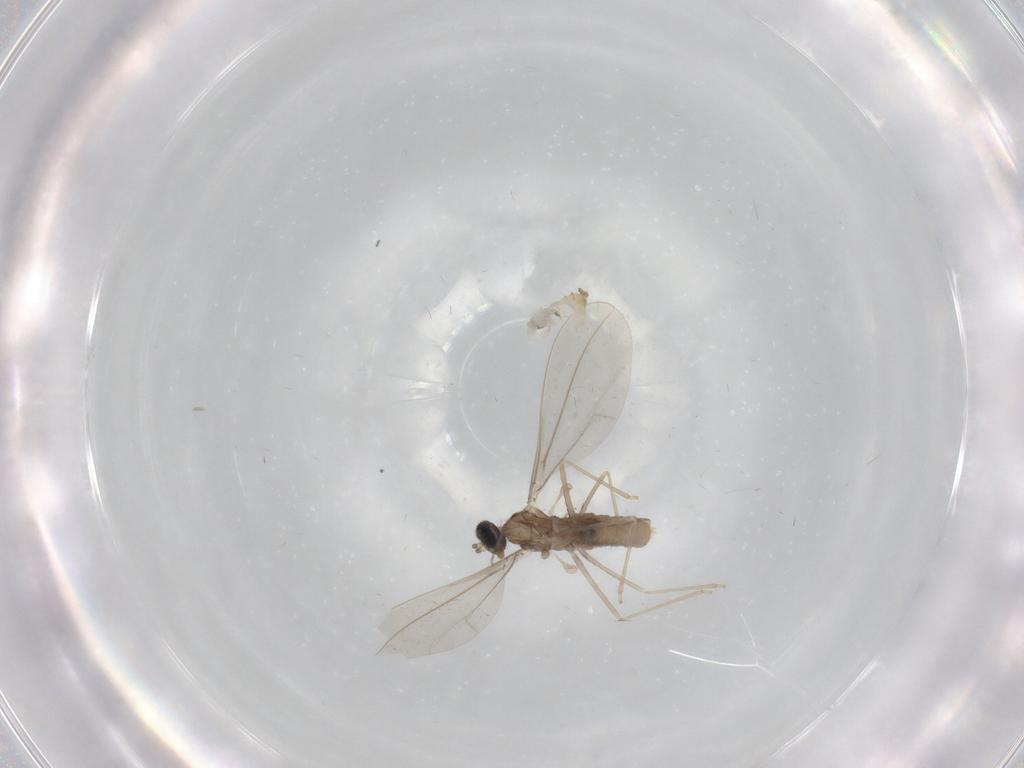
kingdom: Animalia
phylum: Arthropoda
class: Insecta
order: Diptera
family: Cecidomyiidae
